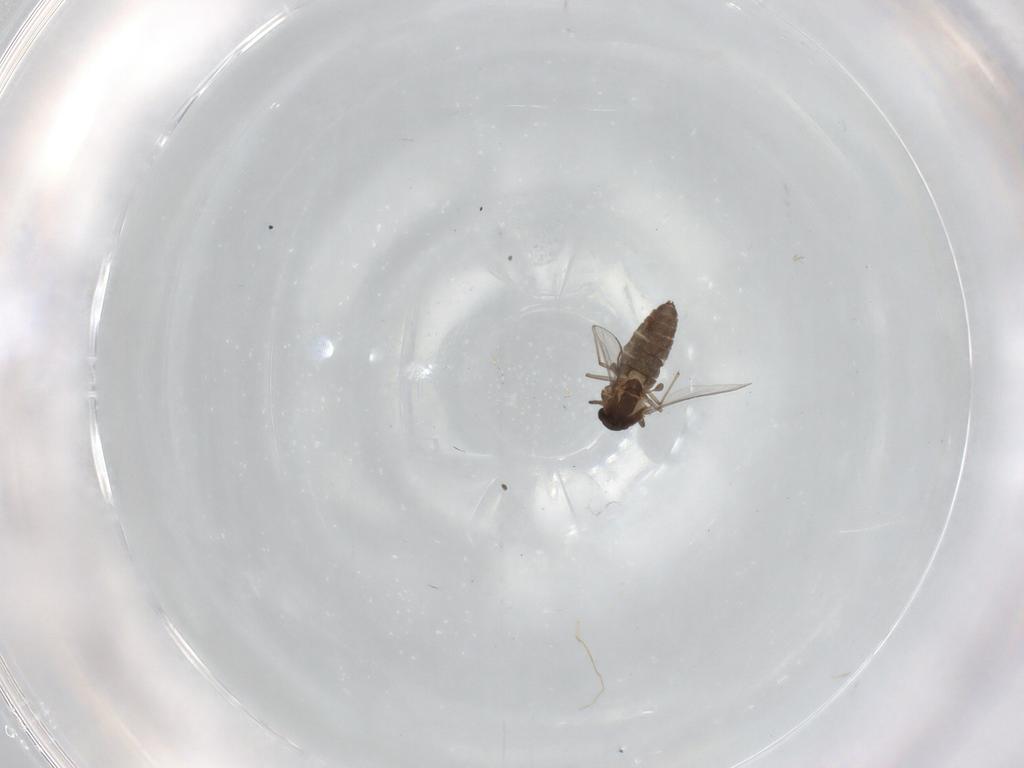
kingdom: Animalia
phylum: Arthropoda
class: Insecta
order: Diptera
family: Chironomidae
